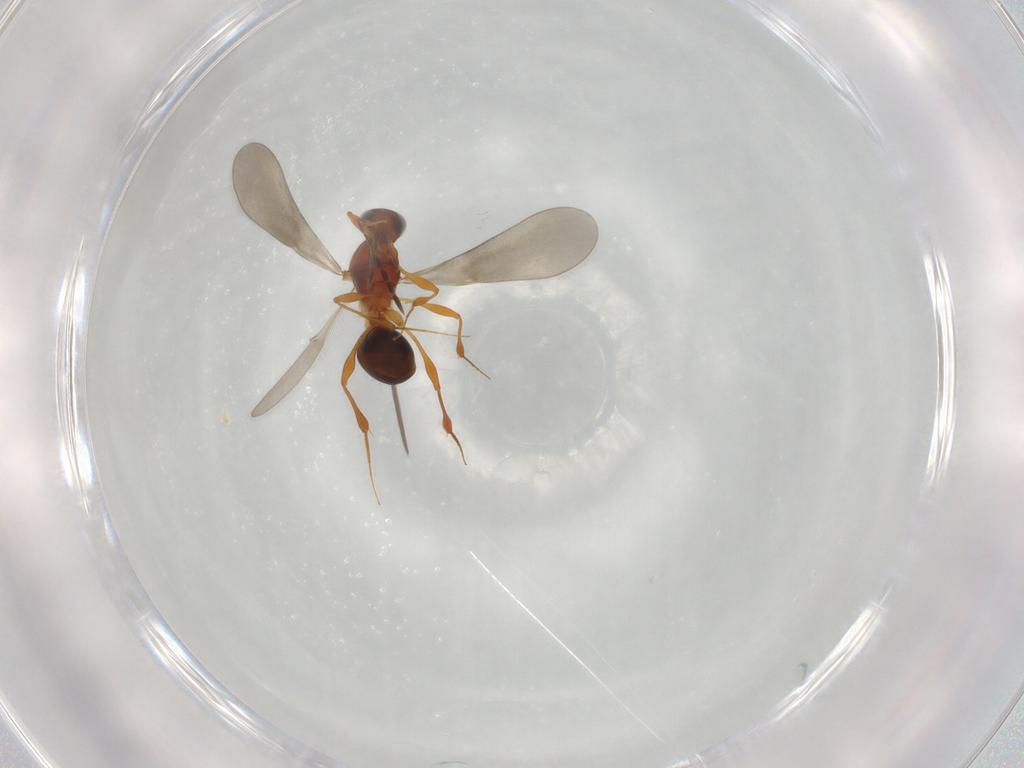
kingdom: Animalia
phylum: Arthropoda
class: Insecta
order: Hymenoptera
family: Platygastridae
